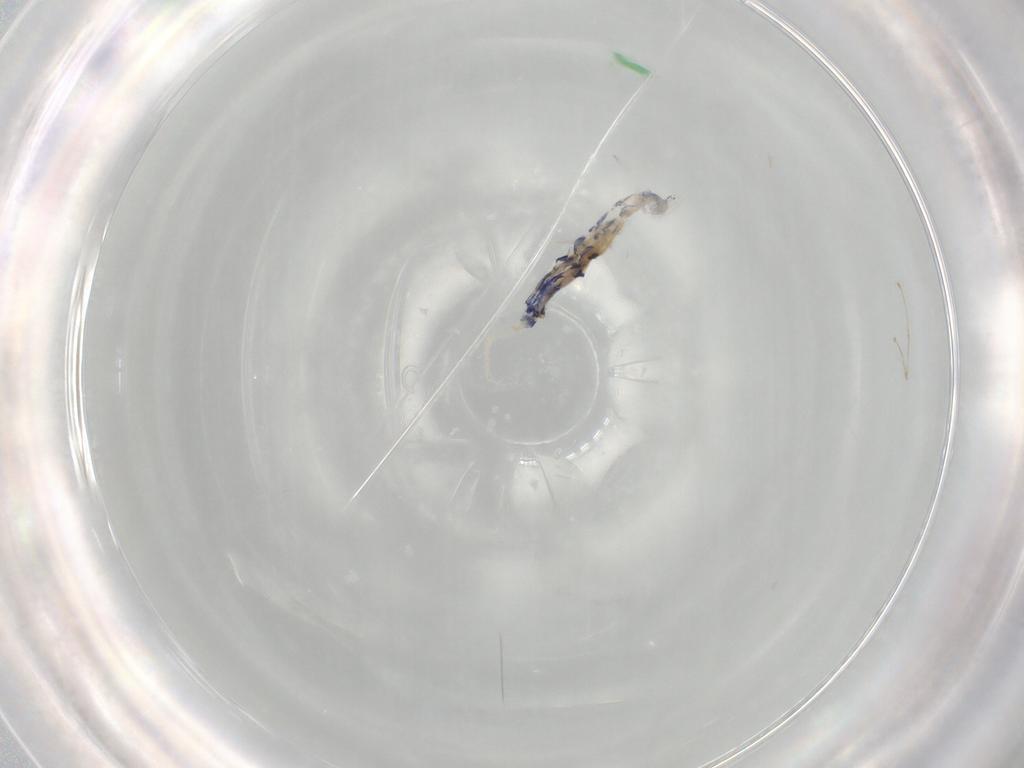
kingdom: Animalia
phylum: Arthropoda
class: Collembola
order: Entomobryomorpha
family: Entomobryidae
